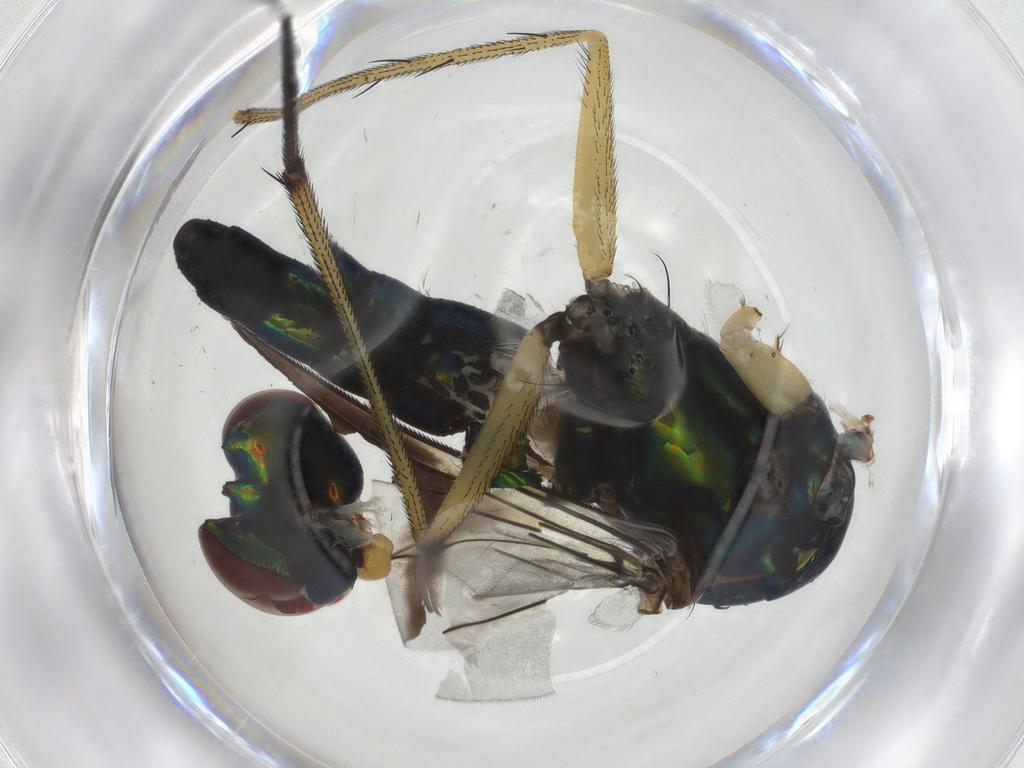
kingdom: Animalia
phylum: Arthropoda
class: Insecta
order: Diptera
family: Dolichopodidae
